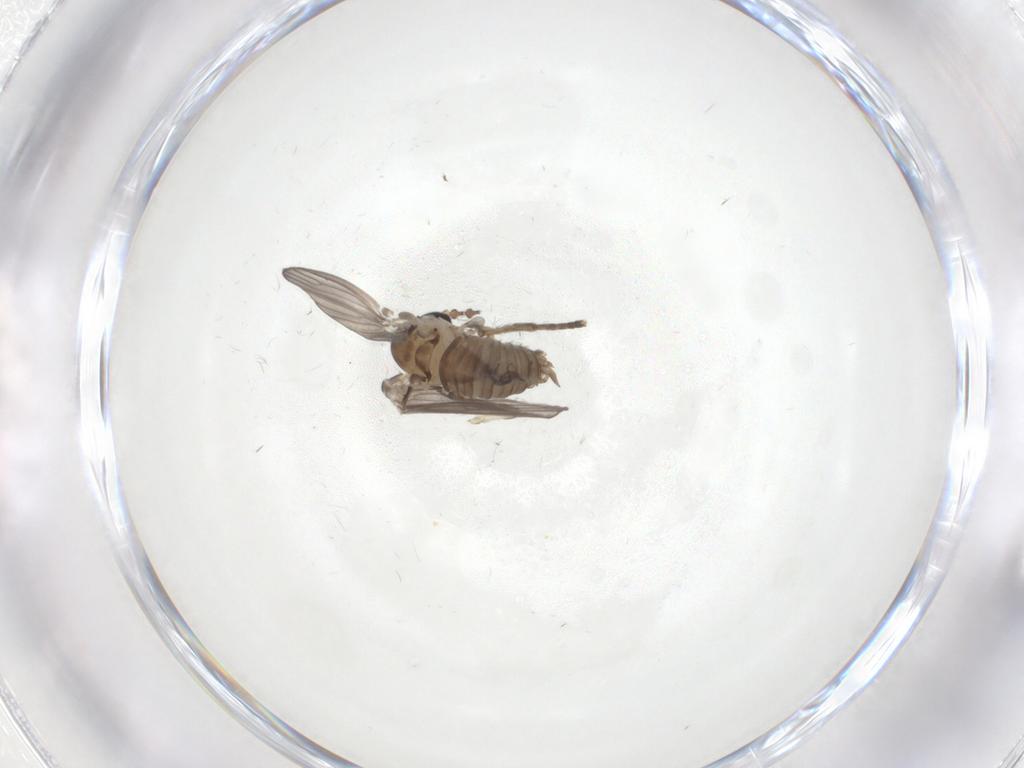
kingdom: Animalia
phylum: Arthropoda
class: Insecta
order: Diptera
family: Psychodidae
